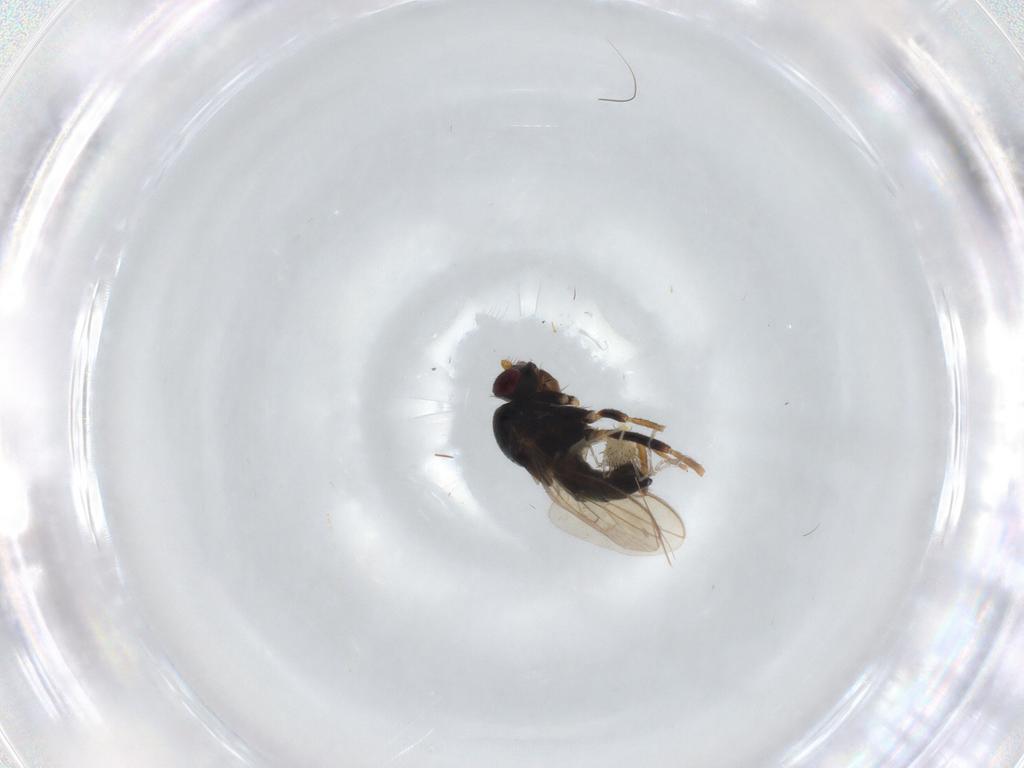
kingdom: Animalia
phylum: Arthropoda
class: Insecta
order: Diptera
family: Sphaeroceridae
